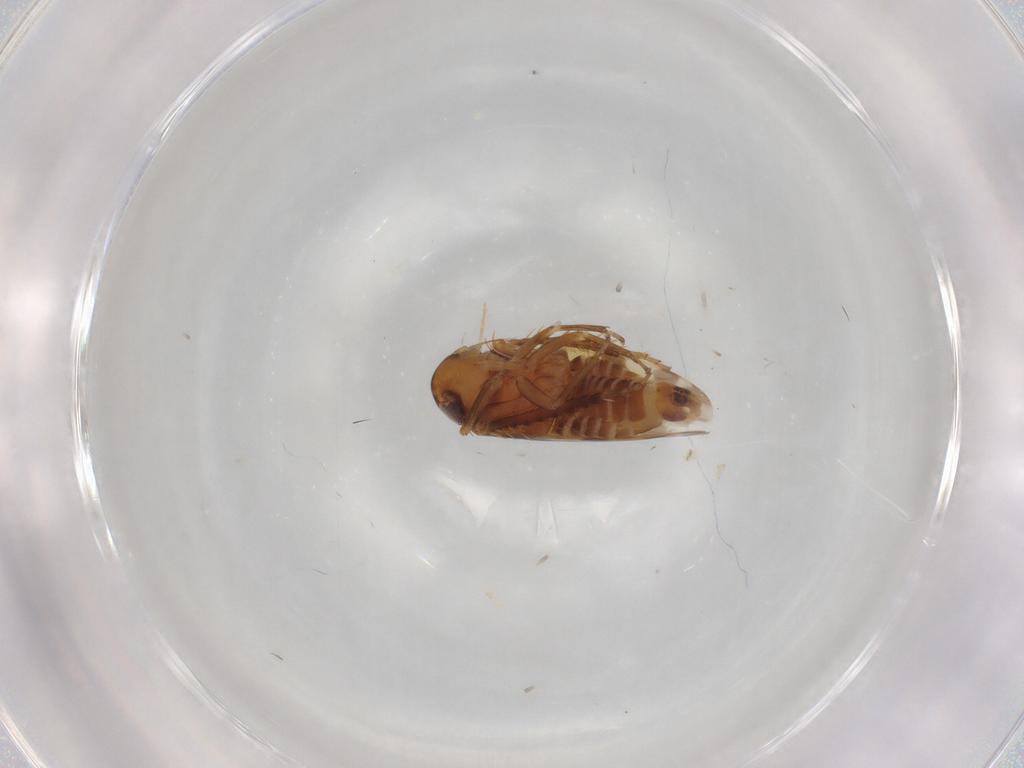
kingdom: Animalia
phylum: Arthropoda
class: Insecta
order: Hemiptera
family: Cicadellidae
